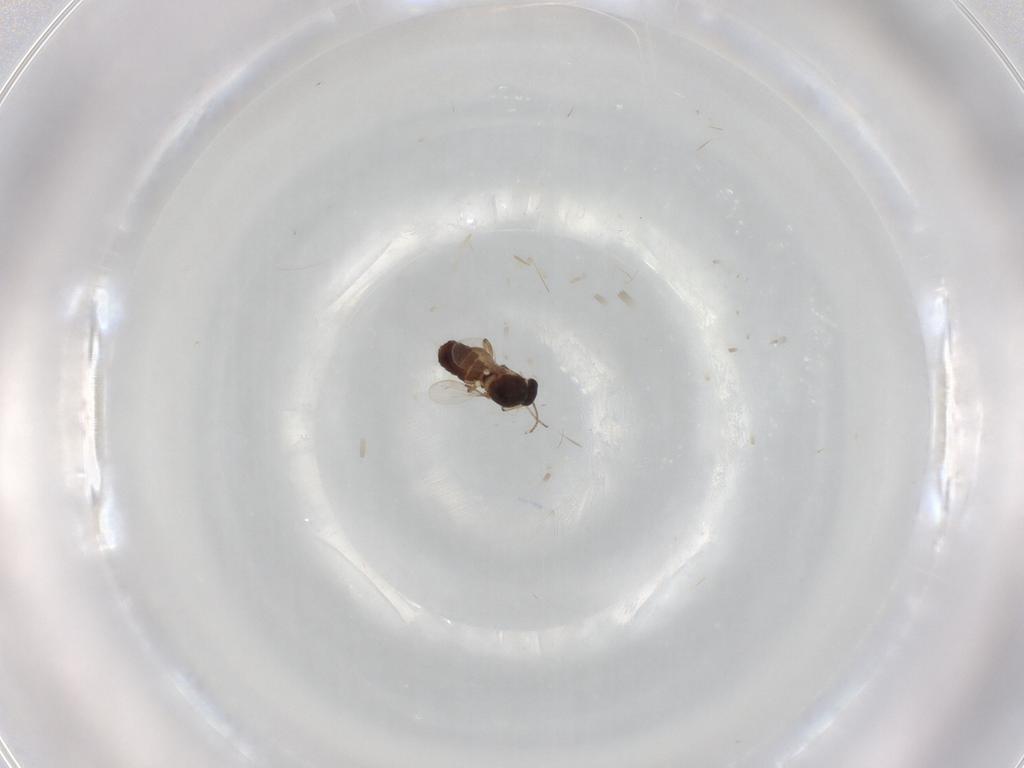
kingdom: Animalia
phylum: Arthropoda
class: Insecta
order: Diptera
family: Ceratopogonidae
